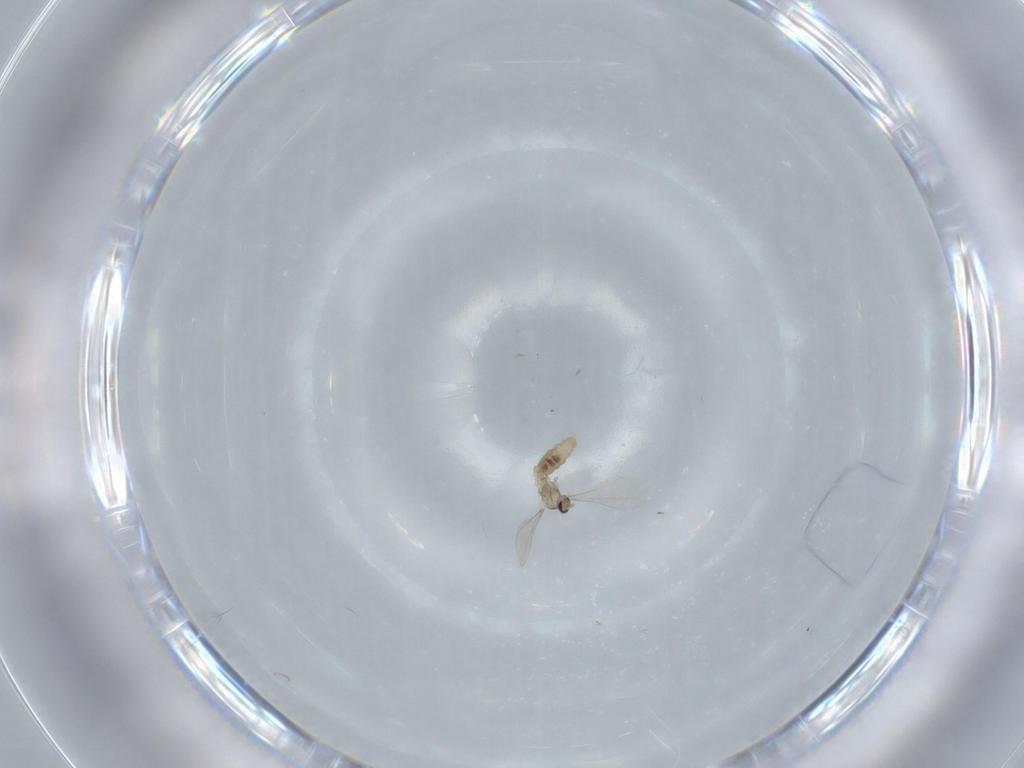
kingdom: Animalia
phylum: Arthropoda
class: Insecta
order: Diptera
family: Cecidomyiidae
